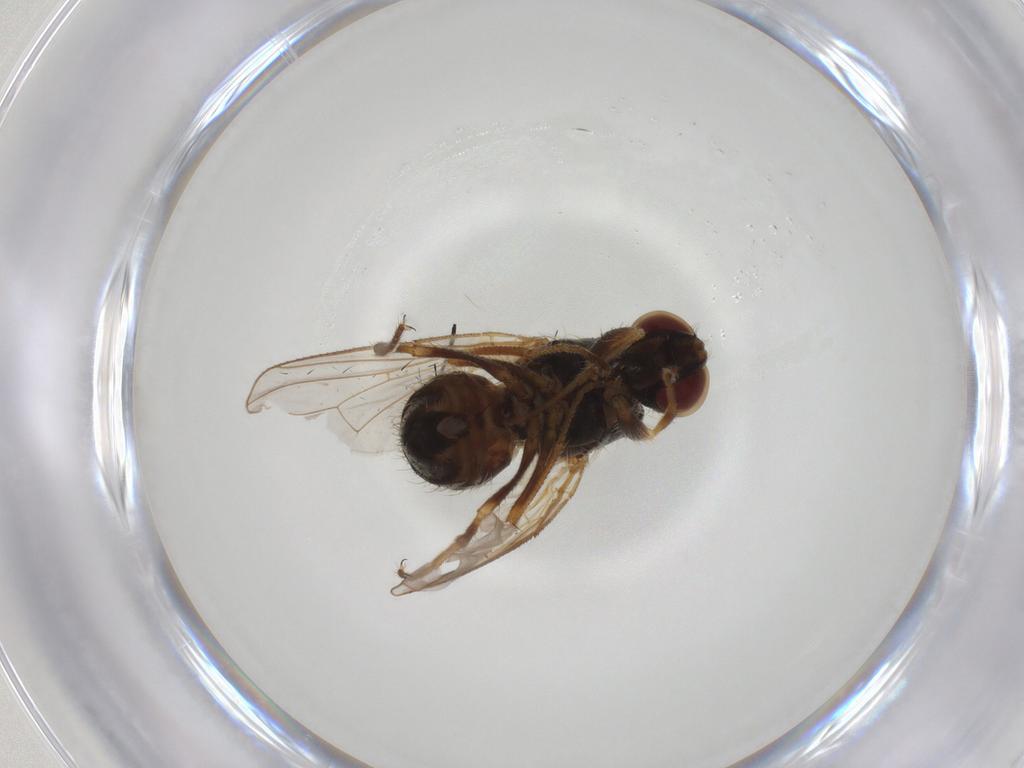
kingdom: Animalia
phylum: Arthropoda
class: Insecta
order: Diptera
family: Muscidae
